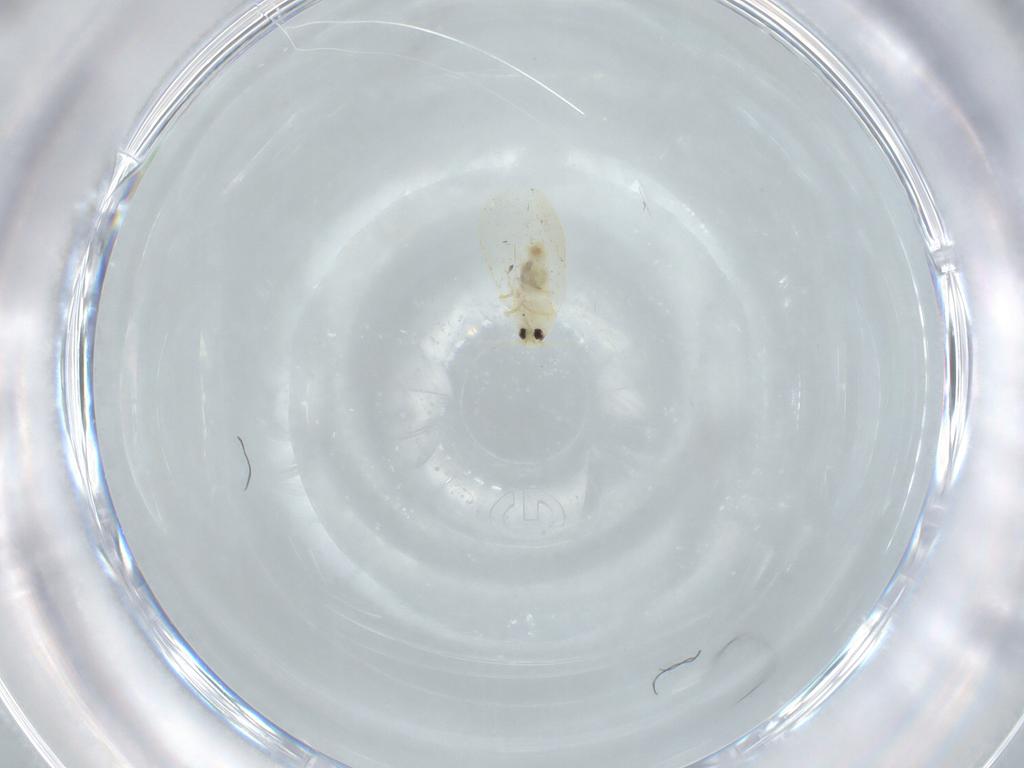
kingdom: Animalia
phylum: Arthropoda
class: Insecta
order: Hemiptera
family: Aleyrodidae
